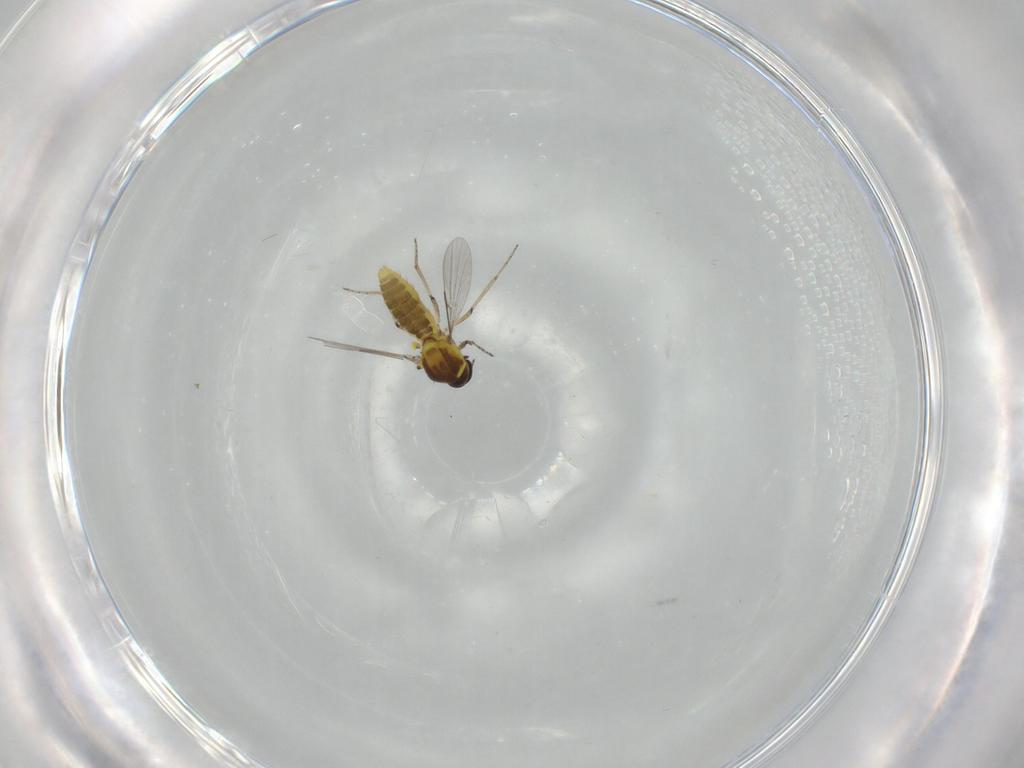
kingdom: Animalia
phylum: Arthropoda
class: Insecta
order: Diptera
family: Ceratopogonidae
